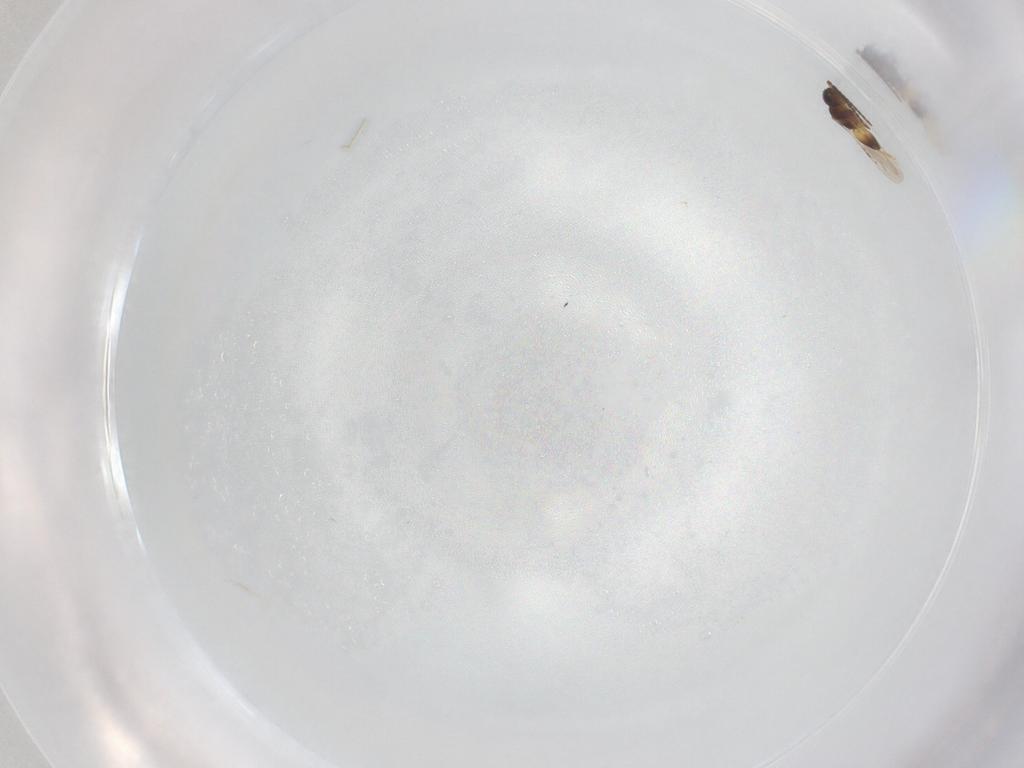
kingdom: Animalia
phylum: Arthropoda
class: Insecta
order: Hymenoptera
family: Ceraphronidae
